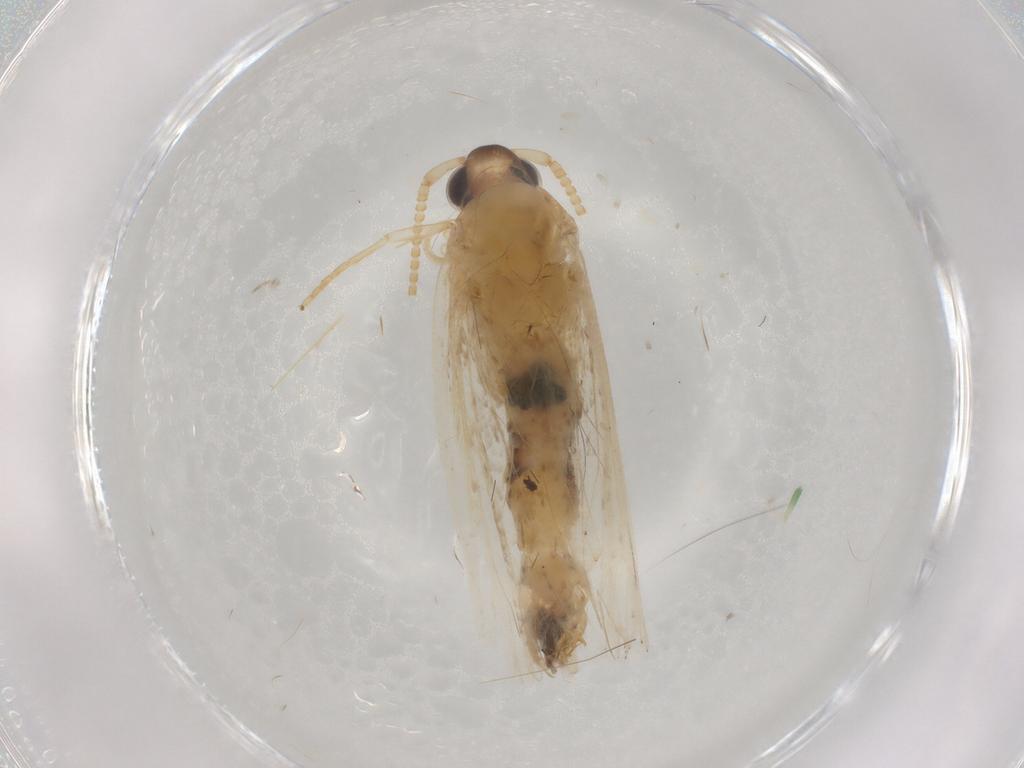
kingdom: Animalia
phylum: Arthropoda
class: Insecta
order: Lepidoptera
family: Lecithoceridae
